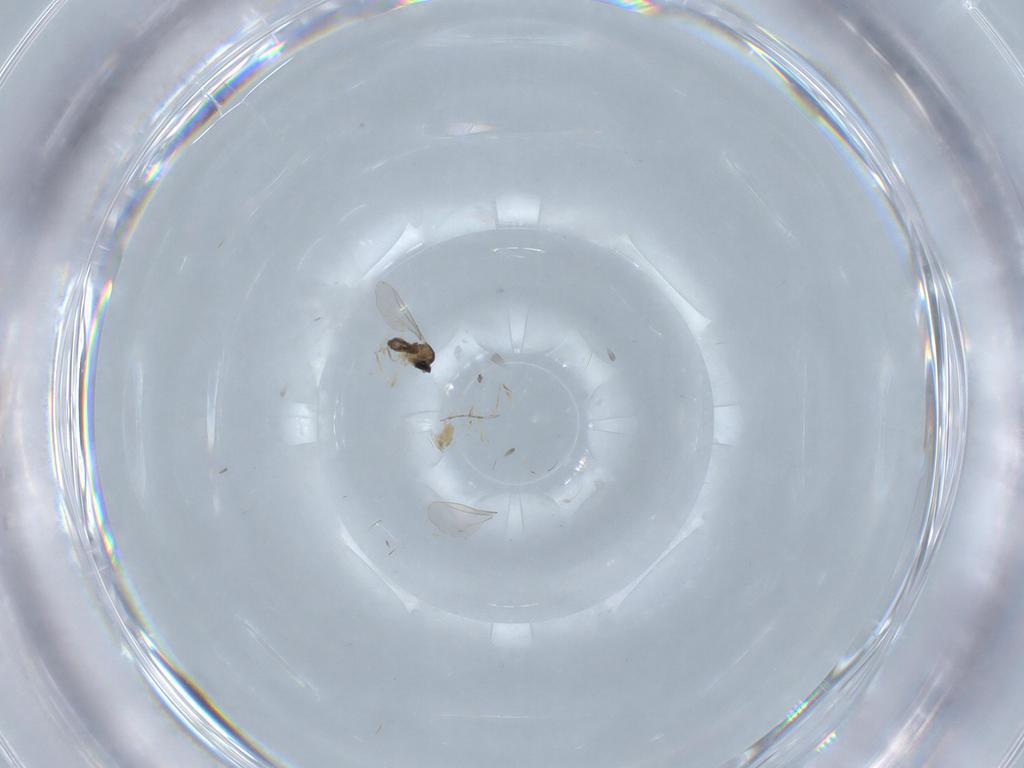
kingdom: Animalia
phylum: Arthropoda
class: Insecta
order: Diptera
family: Cecidomyiidae
